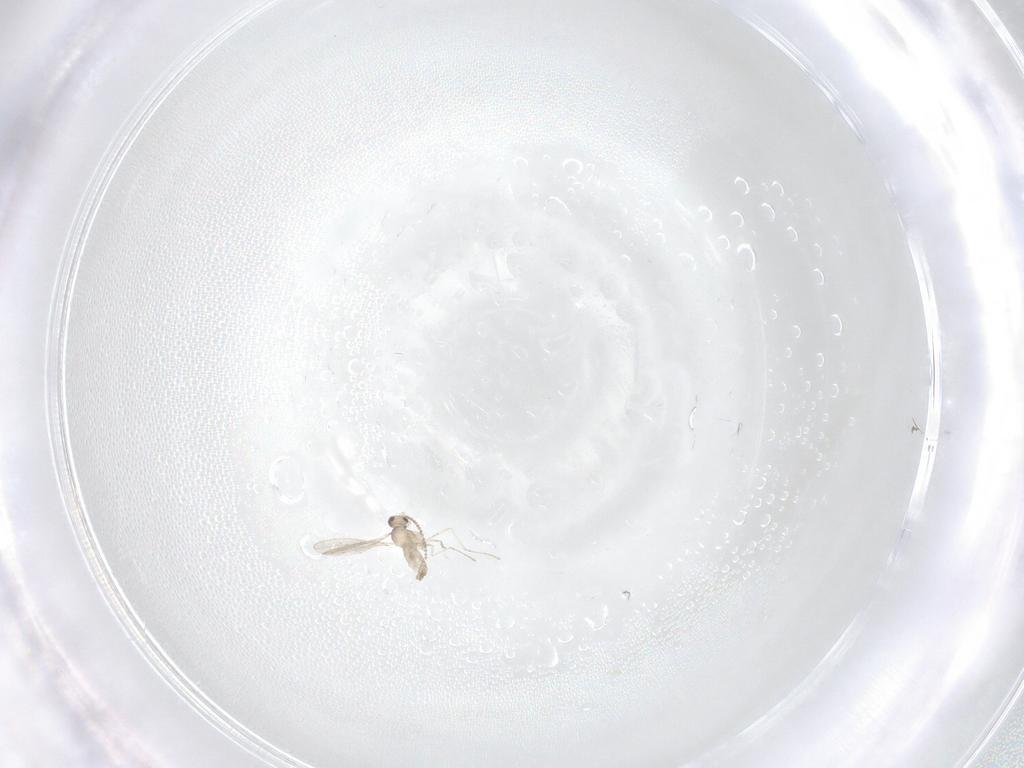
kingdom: Animalia
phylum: Arthropoda
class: Insecta
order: Diptera
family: Cecidomyiidae
